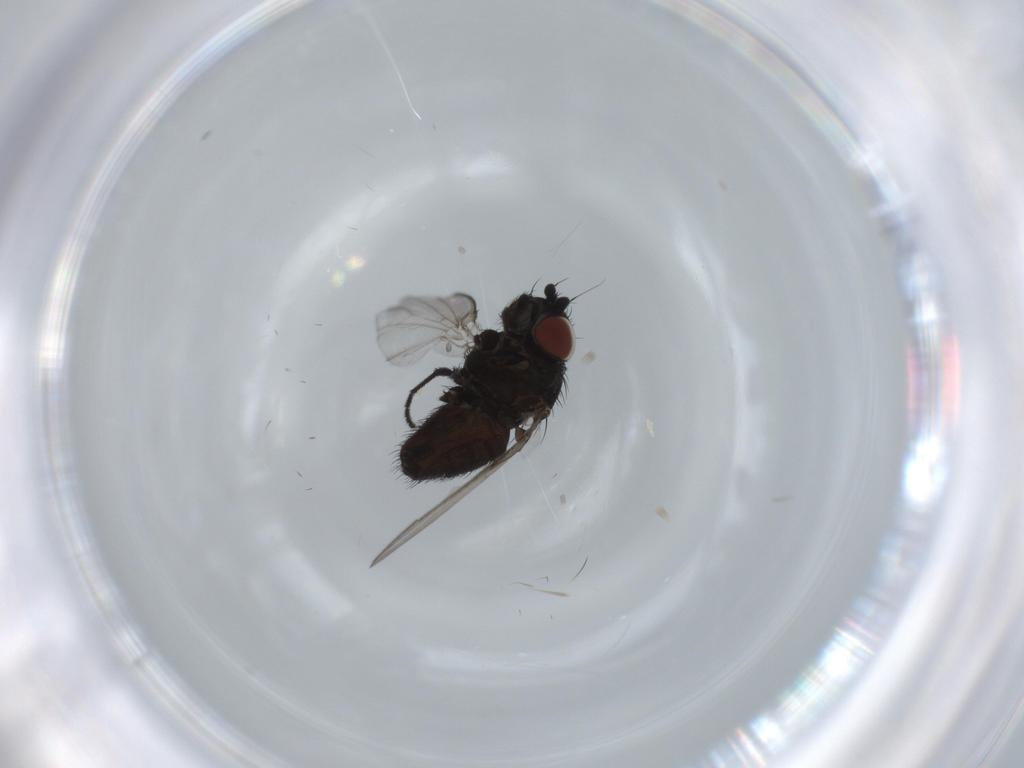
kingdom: Animalia
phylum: Arthropoda
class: Insecta
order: Diptera
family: Milichiidae
